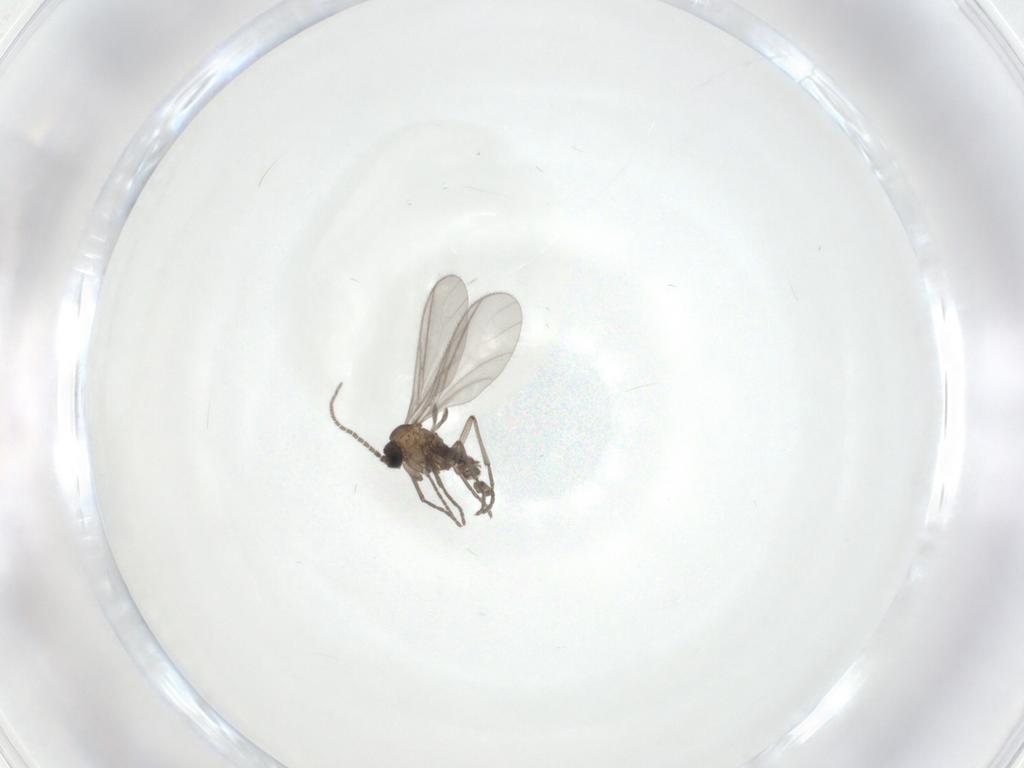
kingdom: Animalia
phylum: Arthropoda
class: Insecta
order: Diptera
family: Sciaridae
